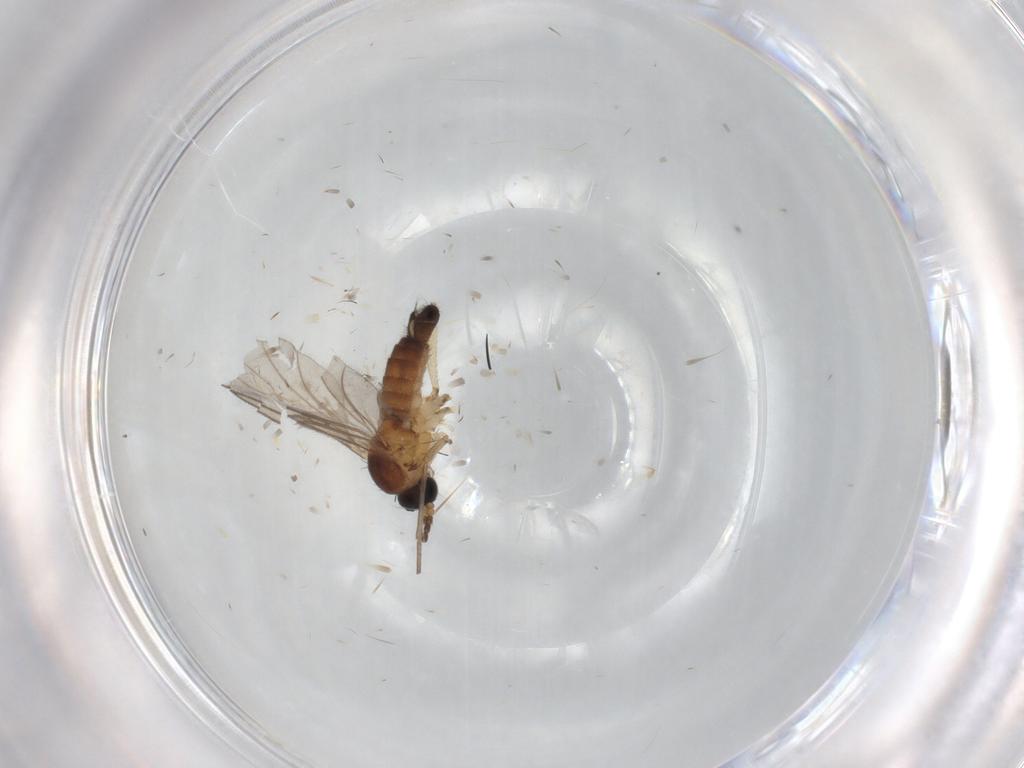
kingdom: Animalia
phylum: Arthropoda
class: Insecta
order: Diptera
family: Sciaridae
